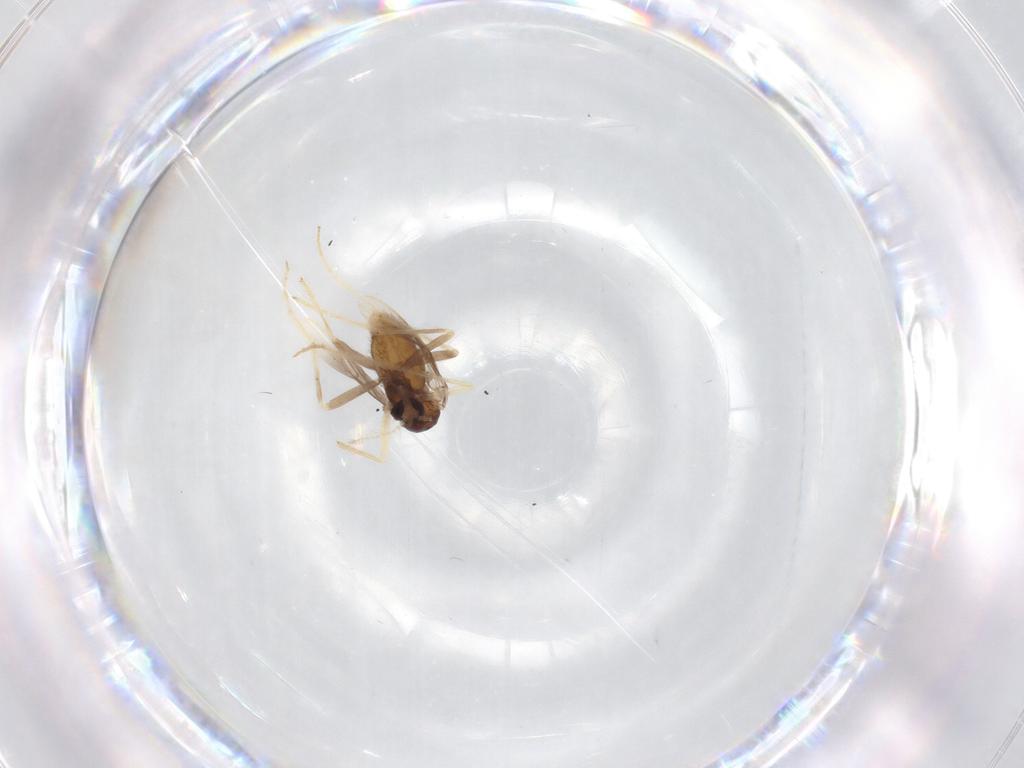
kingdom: Animalia
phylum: Arthropoda
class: Insecta
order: Diptera
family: Chironomidae
